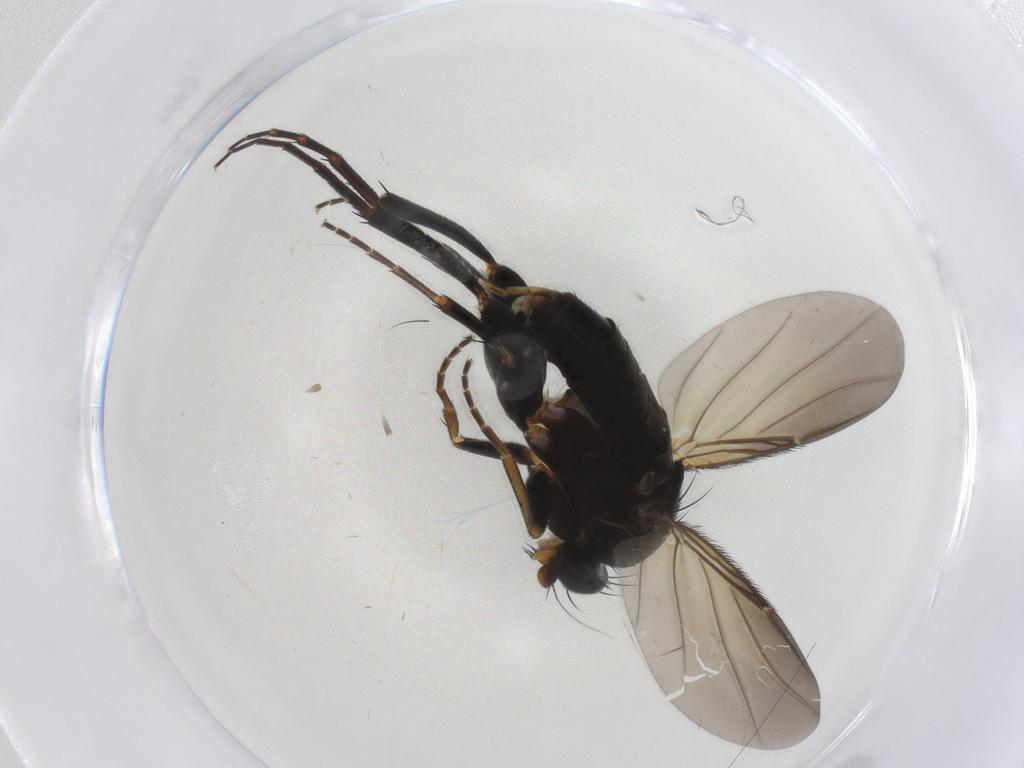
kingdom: Animalia
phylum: Arthropoda
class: Insecta
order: Diptera
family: Phoridae
